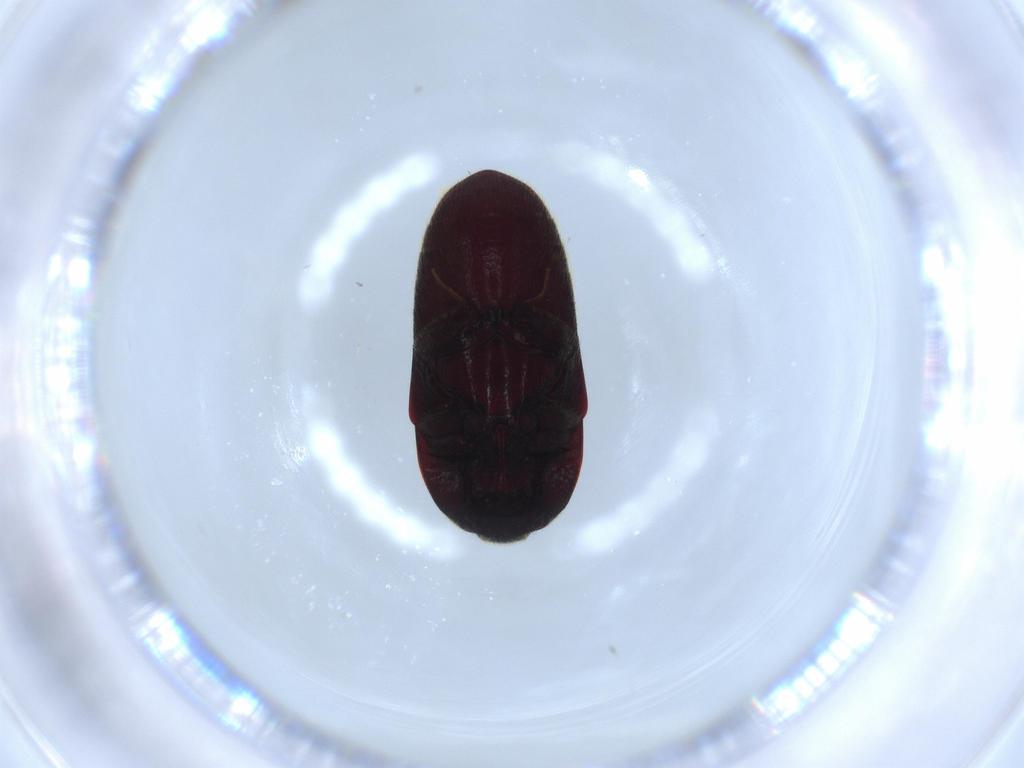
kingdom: Animalia
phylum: Arthropoda
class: Insecta
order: Coleoptera
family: Throscidae
